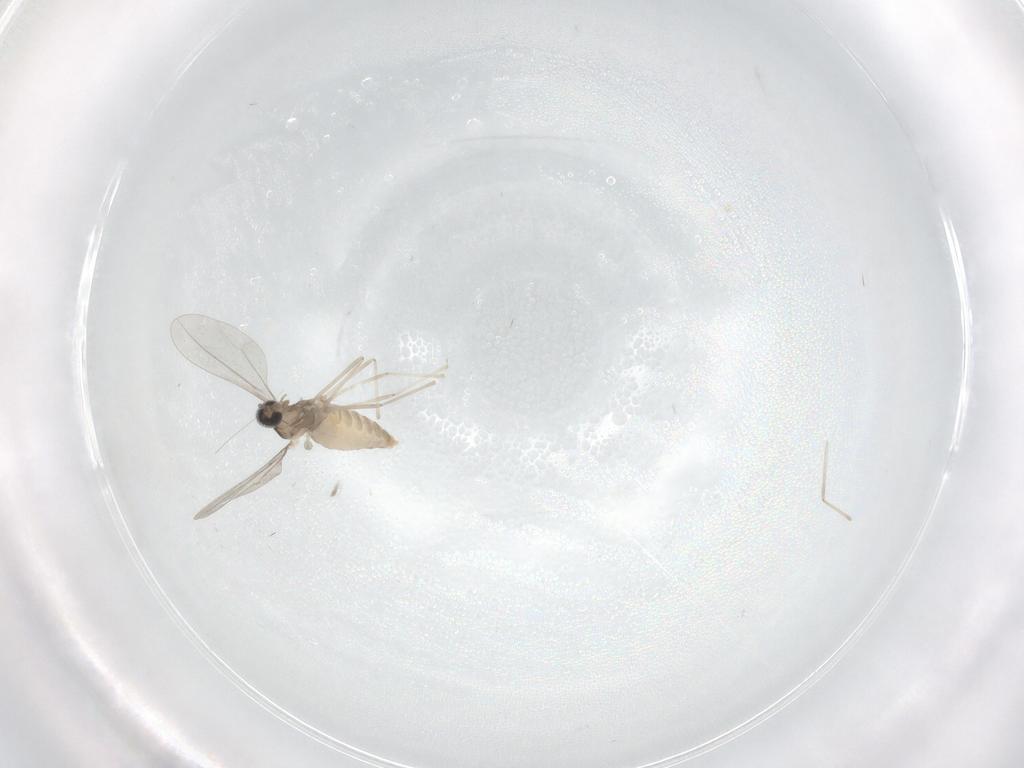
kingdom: Animalia
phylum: Arthropoda
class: Insecta
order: Diptera
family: Cecidomyiidae
